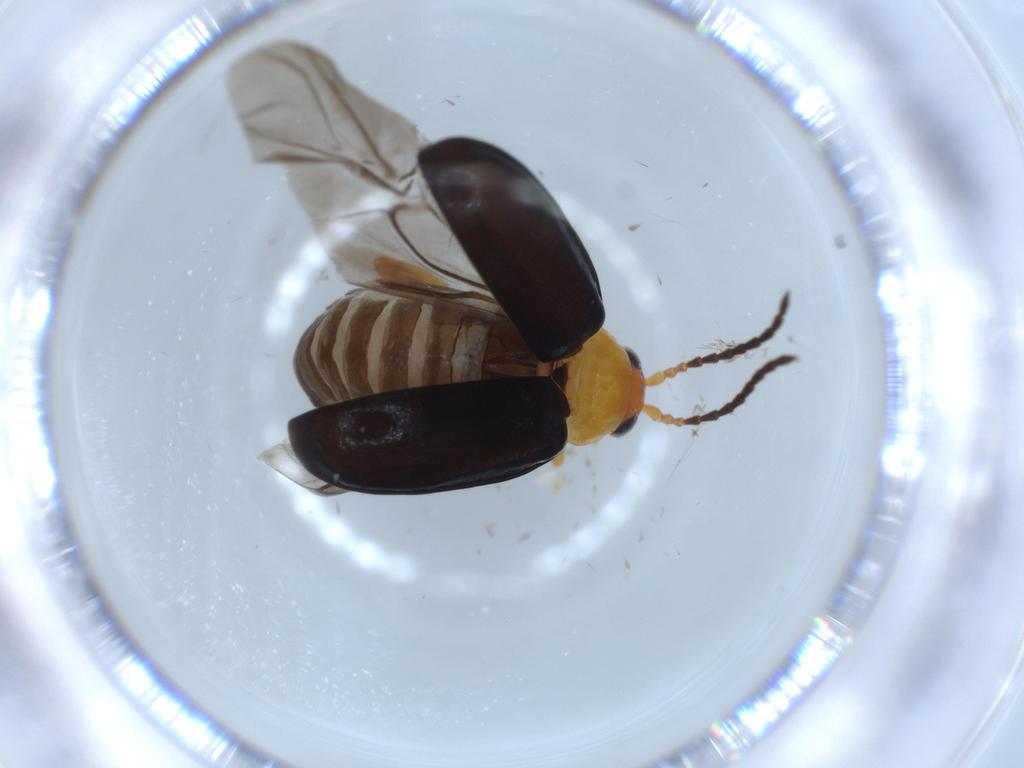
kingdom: Animalia
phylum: Arthropoda
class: Insecta
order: Coleoptera
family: Chrysomelidae
